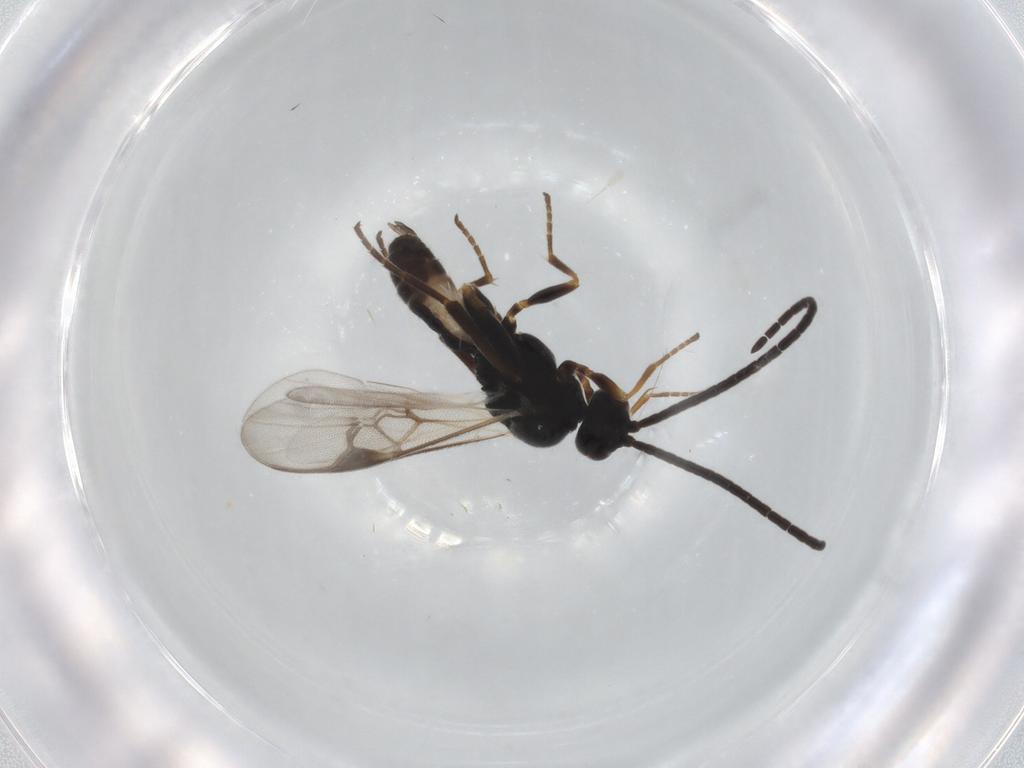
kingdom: Animalia
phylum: Arthropoda
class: Insecta
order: Hymenoptera
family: Braconidae
